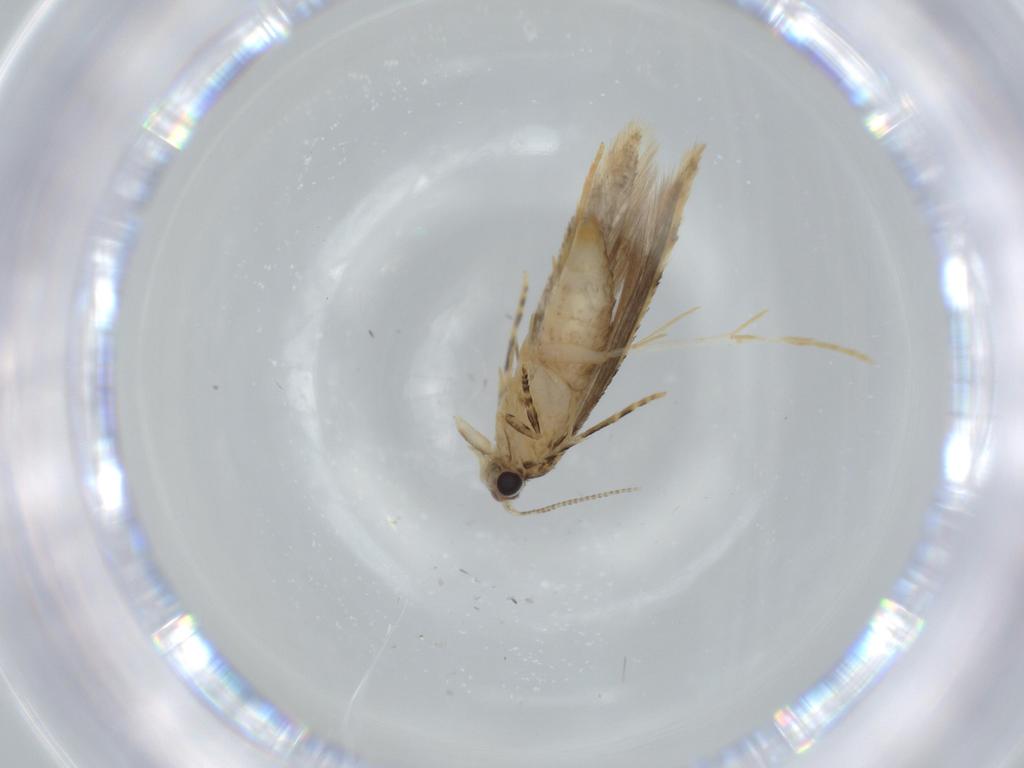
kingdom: Animalia
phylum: Arthropoda
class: Insecta
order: Lepidoptera
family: Tineidae
